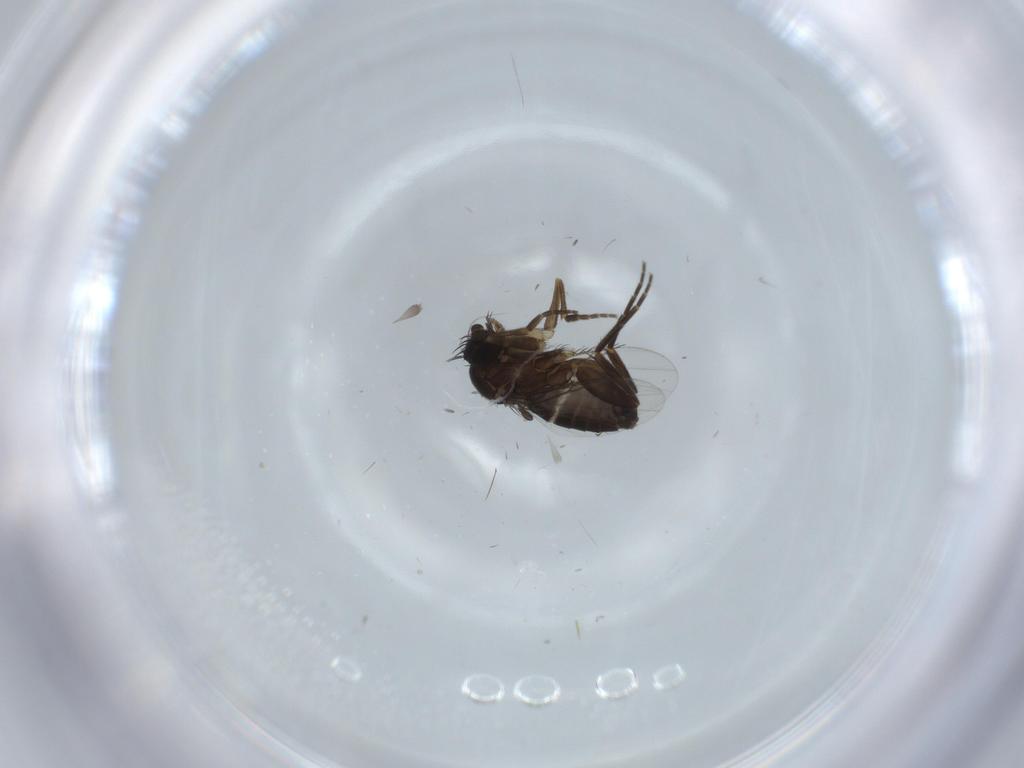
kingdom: Animalia
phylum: Arthropoda
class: Insecta
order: Diptera
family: Phoridae
